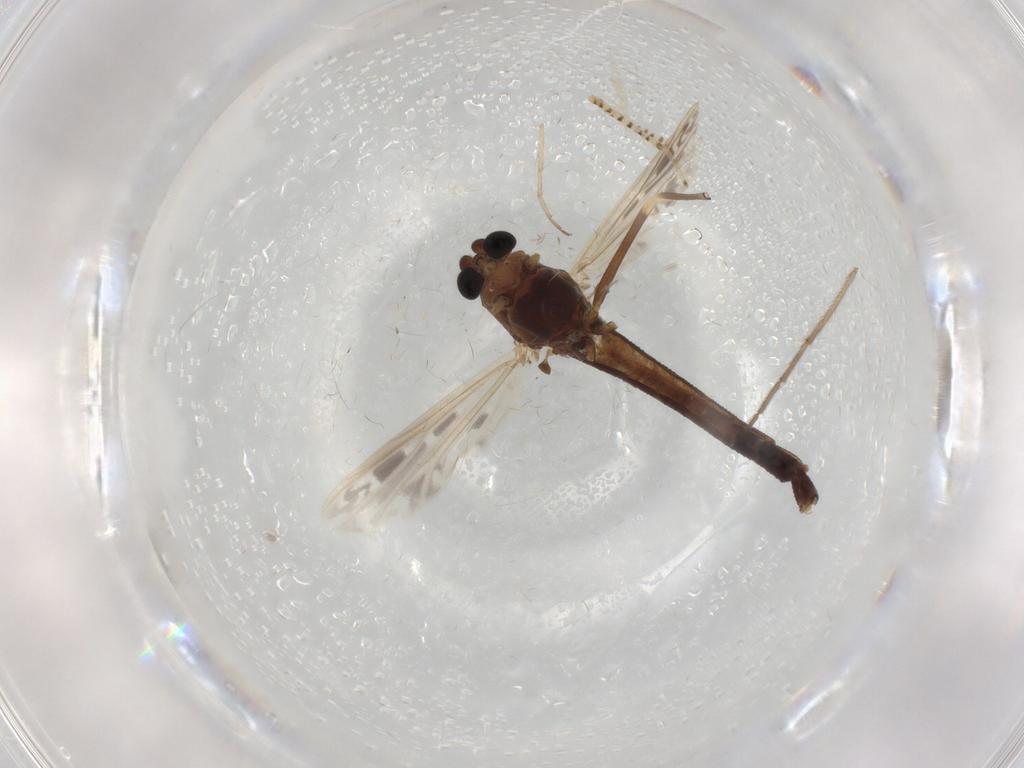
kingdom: Animalia
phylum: Arthropoda
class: Insecta
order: Diptera
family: Chironomidae
